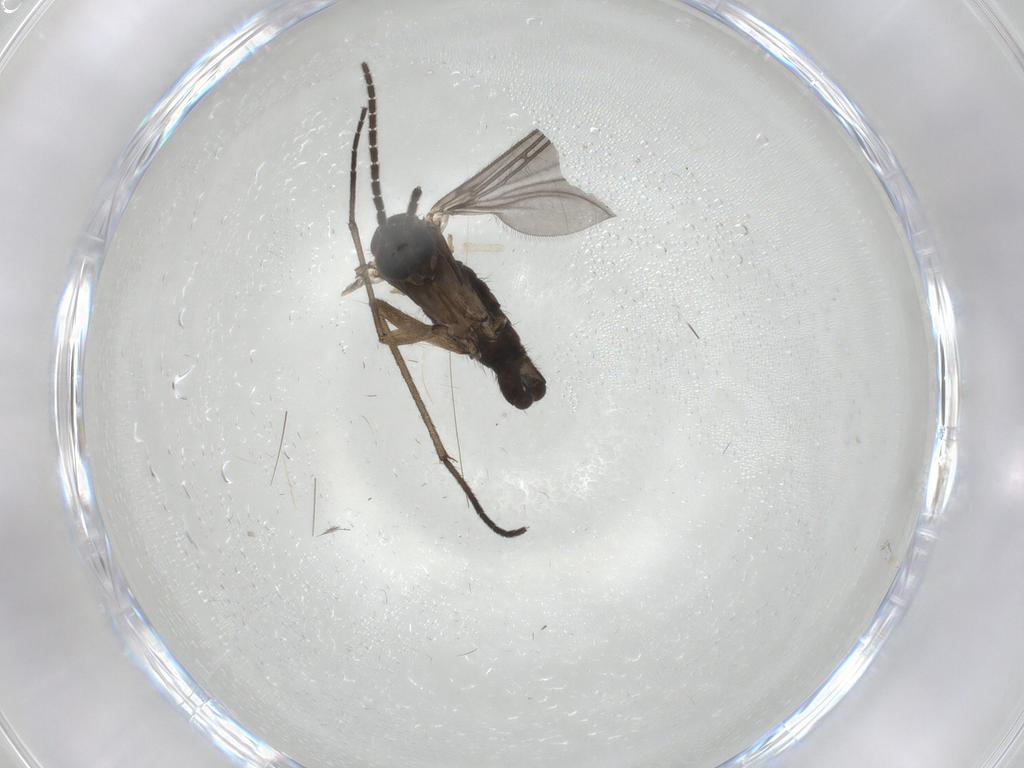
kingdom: Animalia
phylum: Arthropoda
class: Insecta
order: Diptera
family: Sciaridae
